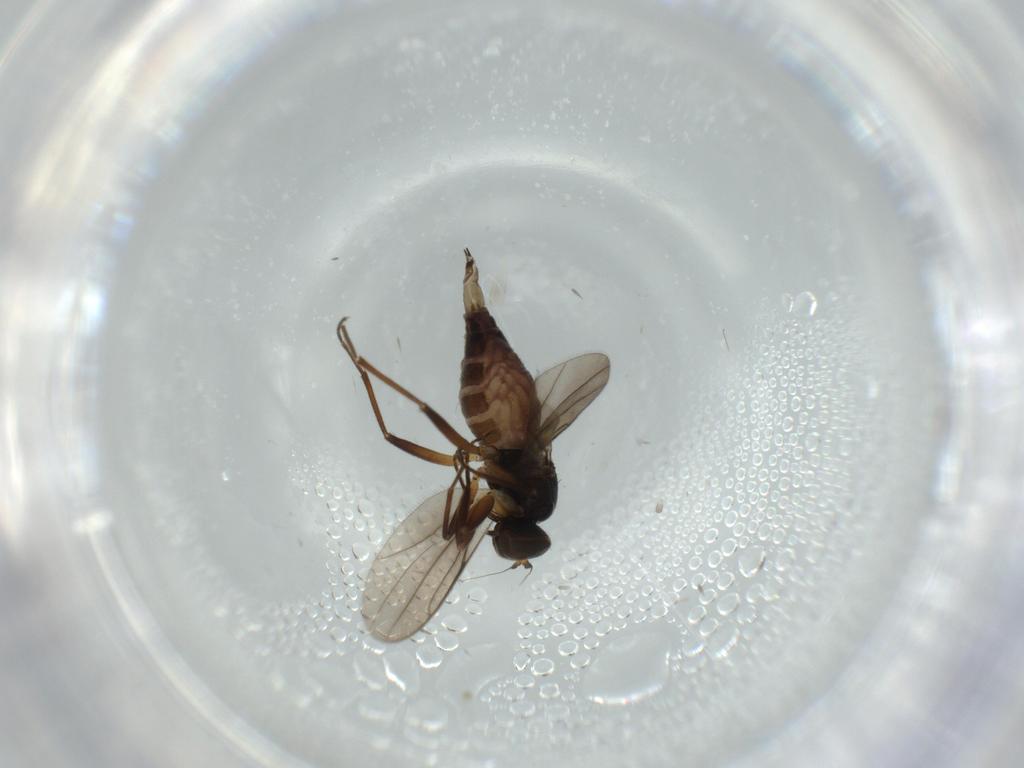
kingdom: Animalia
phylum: Arthropoda
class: Insecta
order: Diptera
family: Hybotidae
